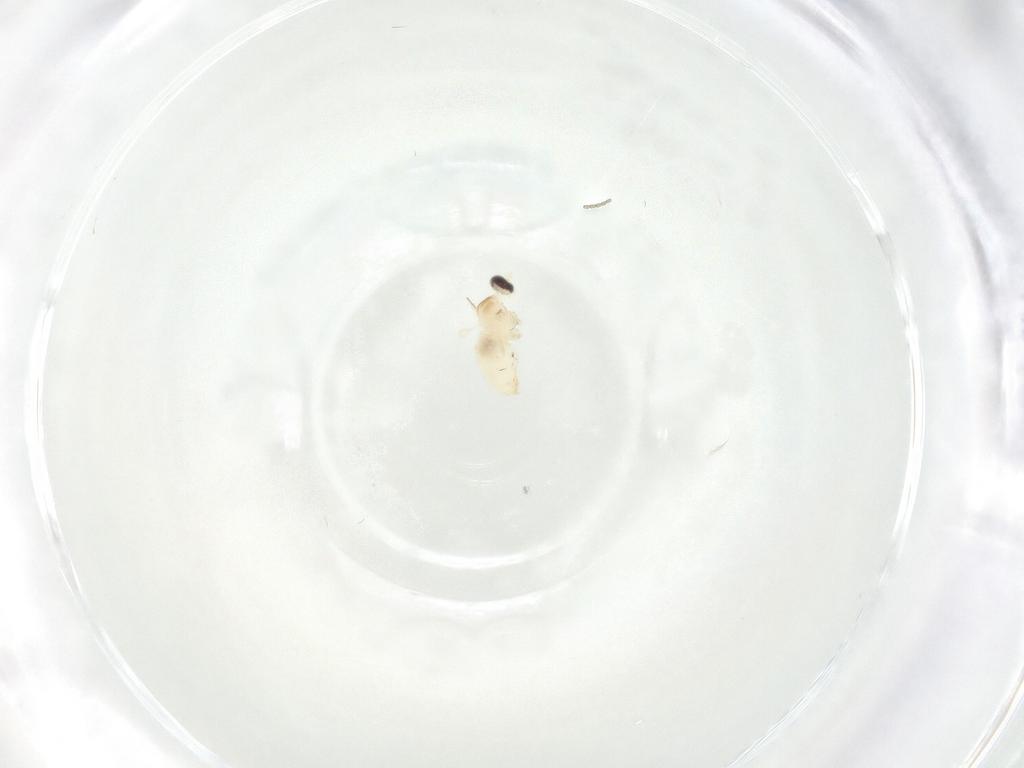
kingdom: Animalia
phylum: Arthropoda
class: Insecta
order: Diptera
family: Cecidomyiidae
